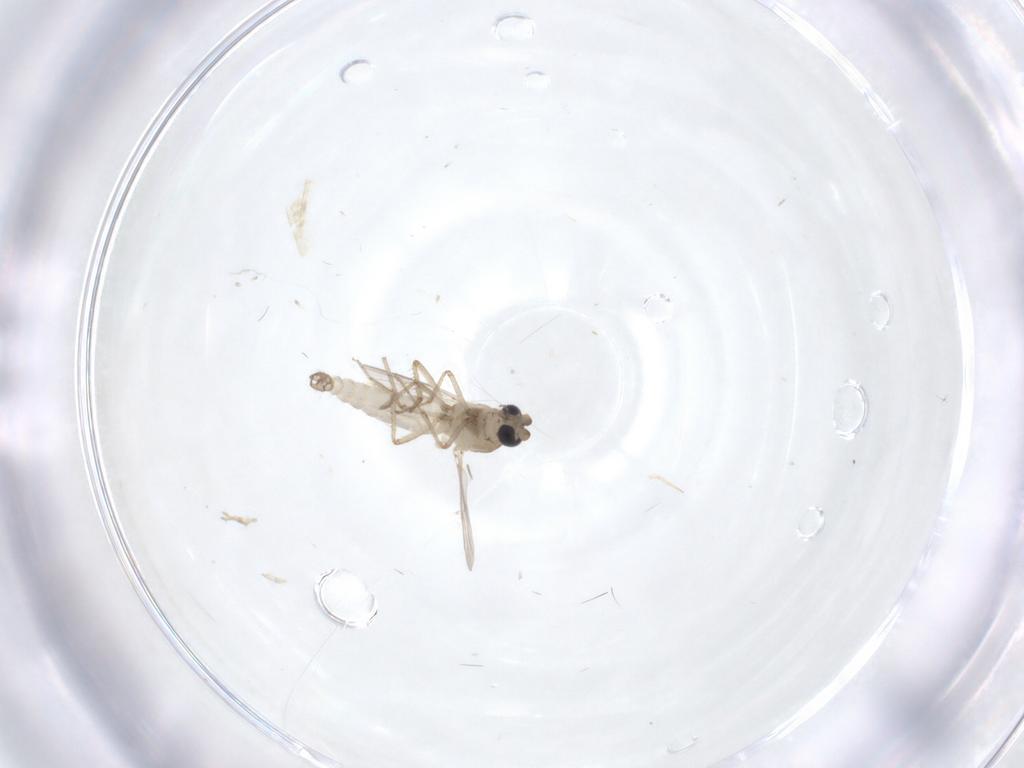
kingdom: Animalia
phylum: Arthropoda
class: Insecta
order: Diptera
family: Ceratopogonidae
